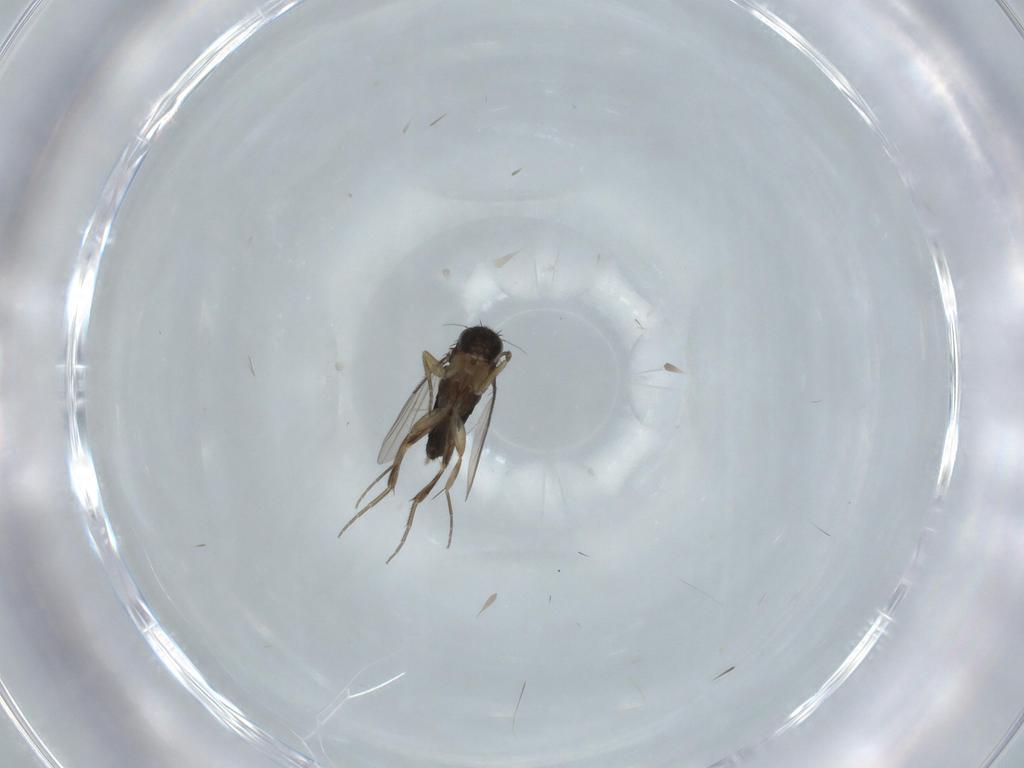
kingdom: Animalia
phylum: Arthropoda
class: Insecta
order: Diptera
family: Phoridae
